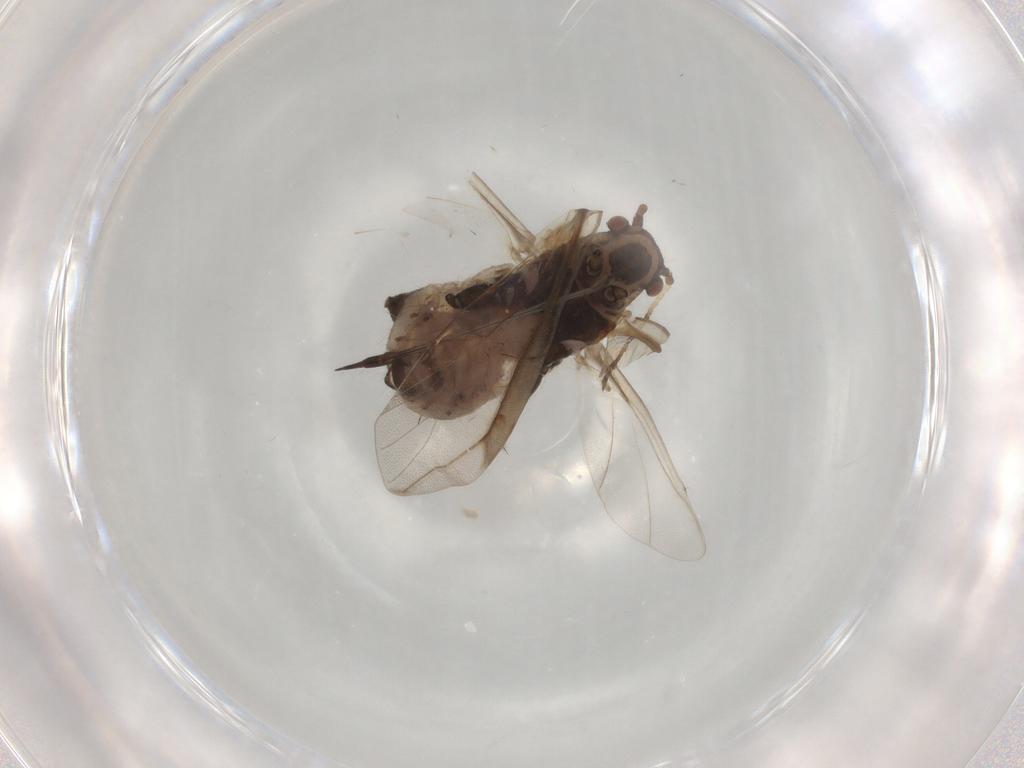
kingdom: Animalia
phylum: Arthropoda
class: Insecta
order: Hemiptera
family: Aphididae
